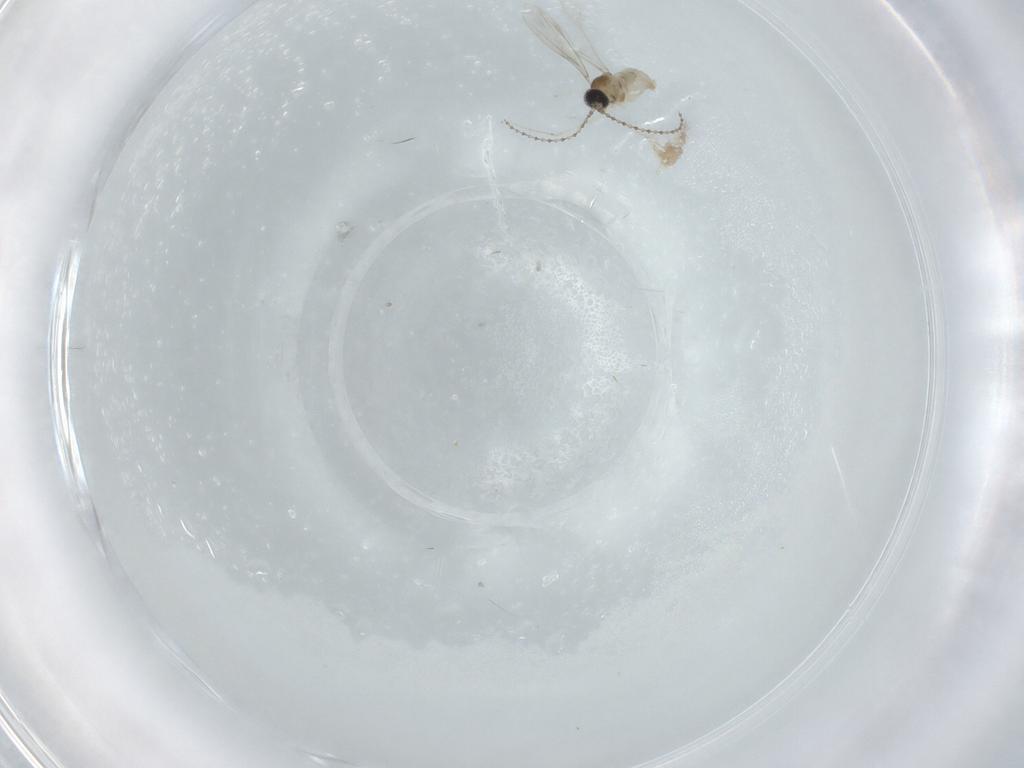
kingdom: Animalia
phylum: Arthropoda
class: Insecta
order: Diptera
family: Cecidomyiidae
